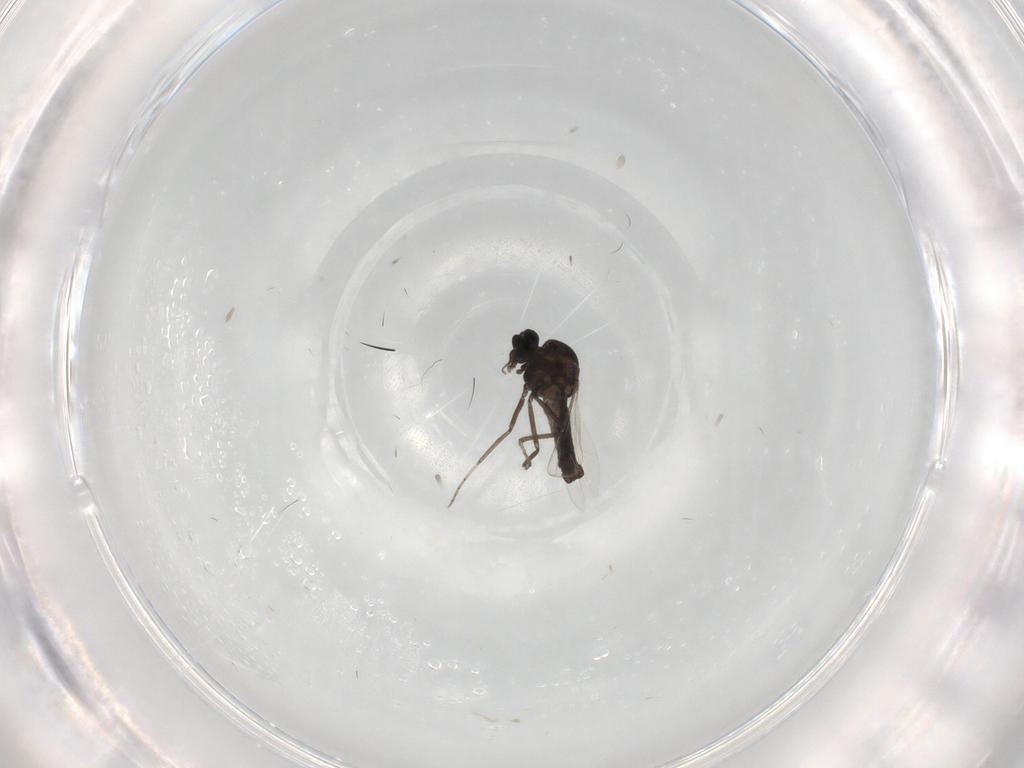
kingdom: Animalia
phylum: Arthropoda
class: Insecta
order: Diptera
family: Ceratopogonidae
